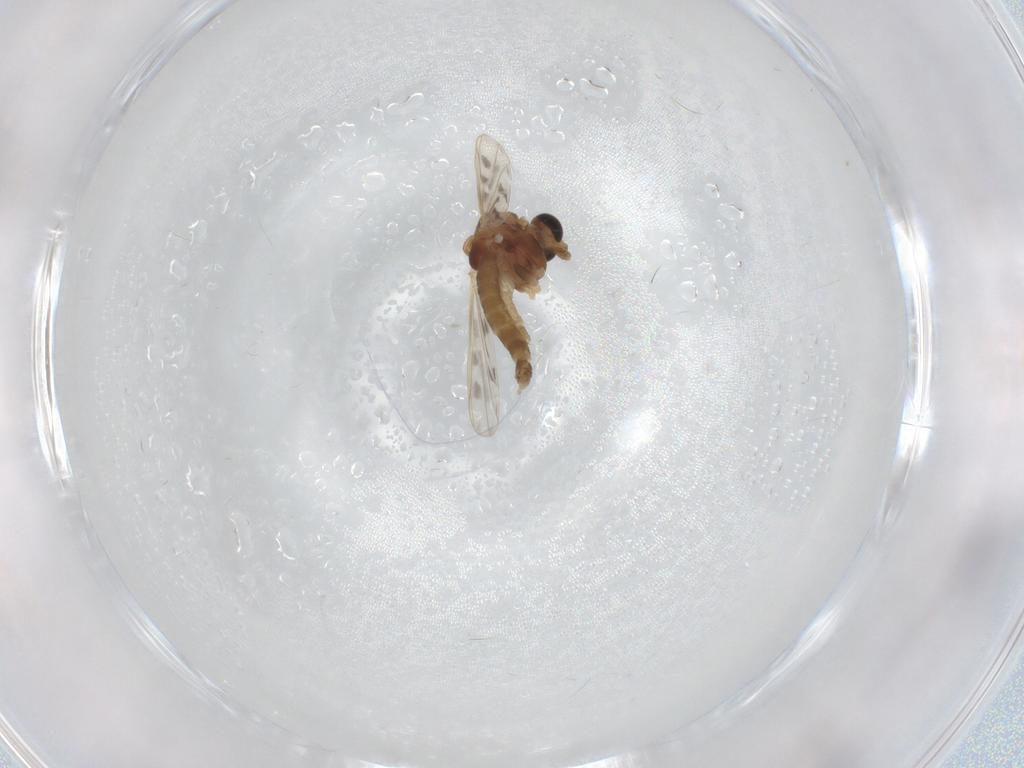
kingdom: Animalia
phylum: Arthropoda
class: Insecta
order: Diptera
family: Chironomidae
